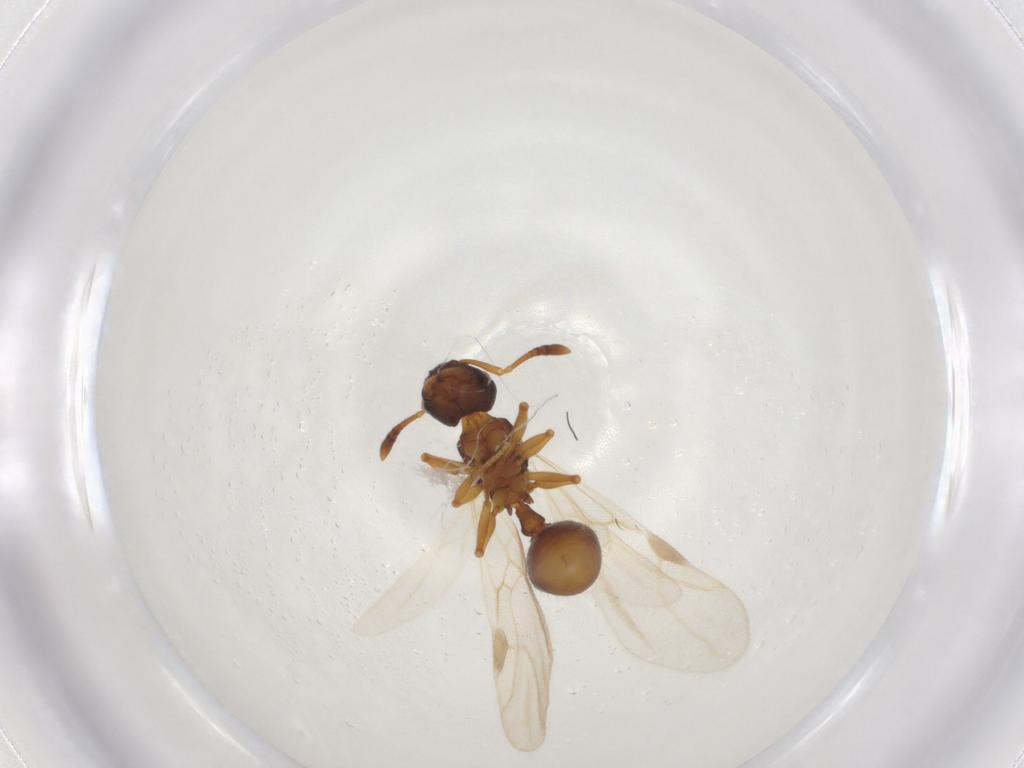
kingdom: Animalia
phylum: Arthropoda
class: Insecta
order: Hymenoptera
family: Formicidae
